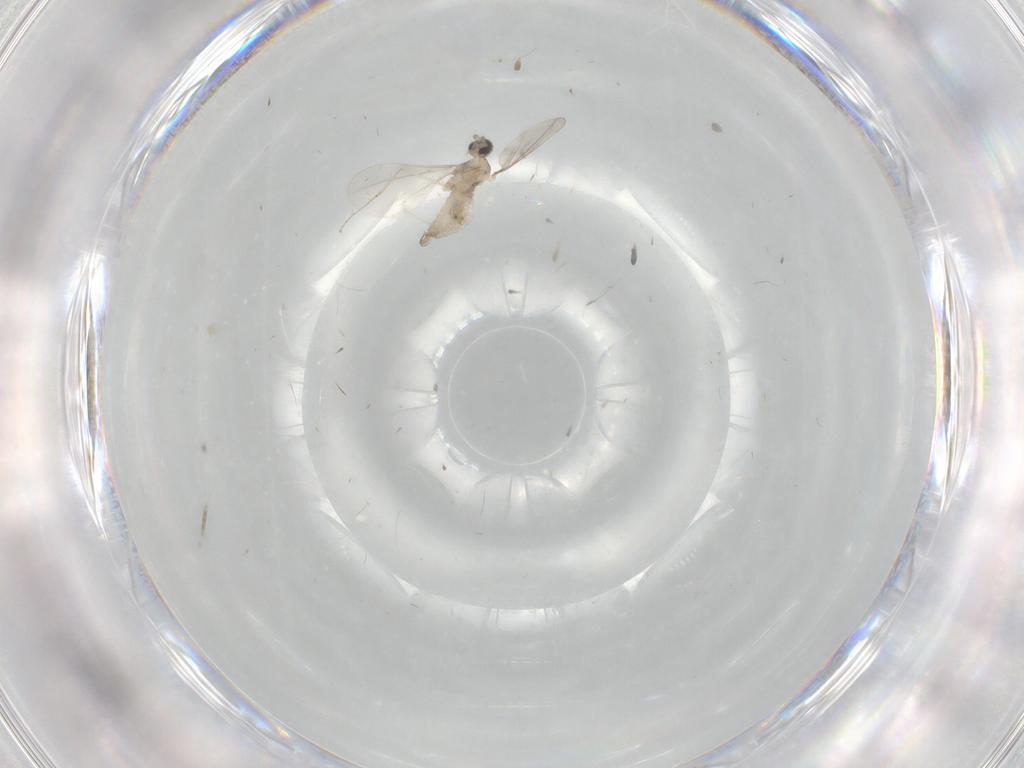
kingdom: Animalia
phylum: Arthropoda
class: Insecta
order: Diptera
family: Cecidomyiidae
